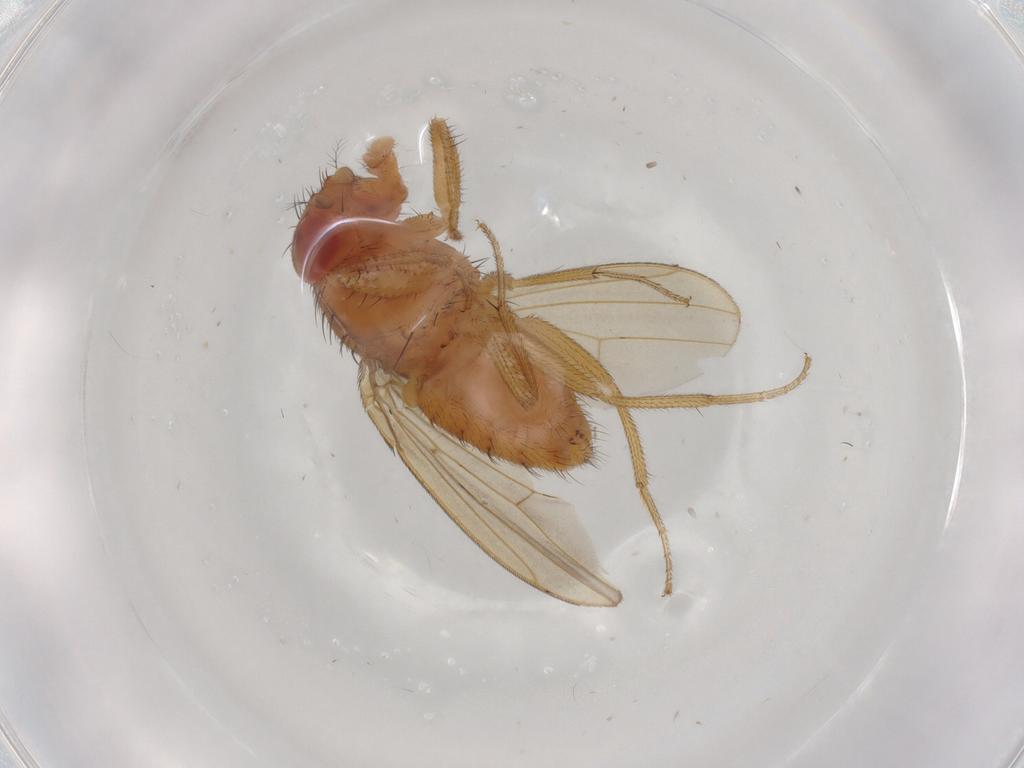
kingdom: Animalia
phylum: Arthropoda
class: Insecta
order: Diptera
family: Drosophilidae
